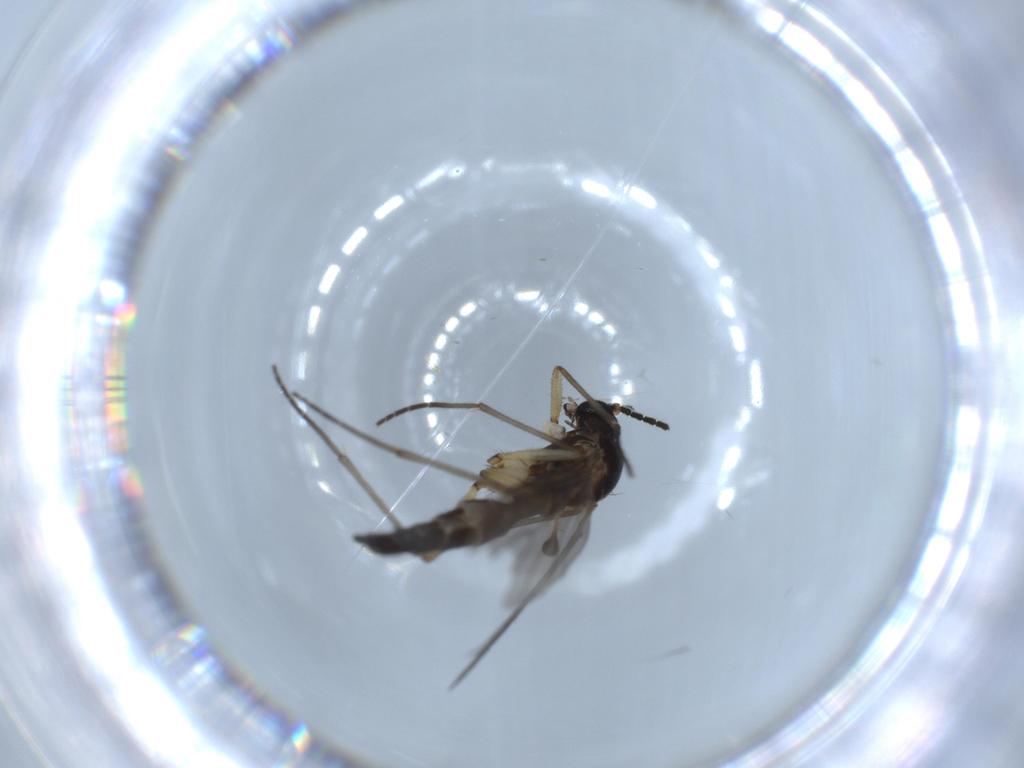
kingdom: Animalia
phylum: Arthropoda
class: Insecta
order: Diptera
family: Sciaridae
